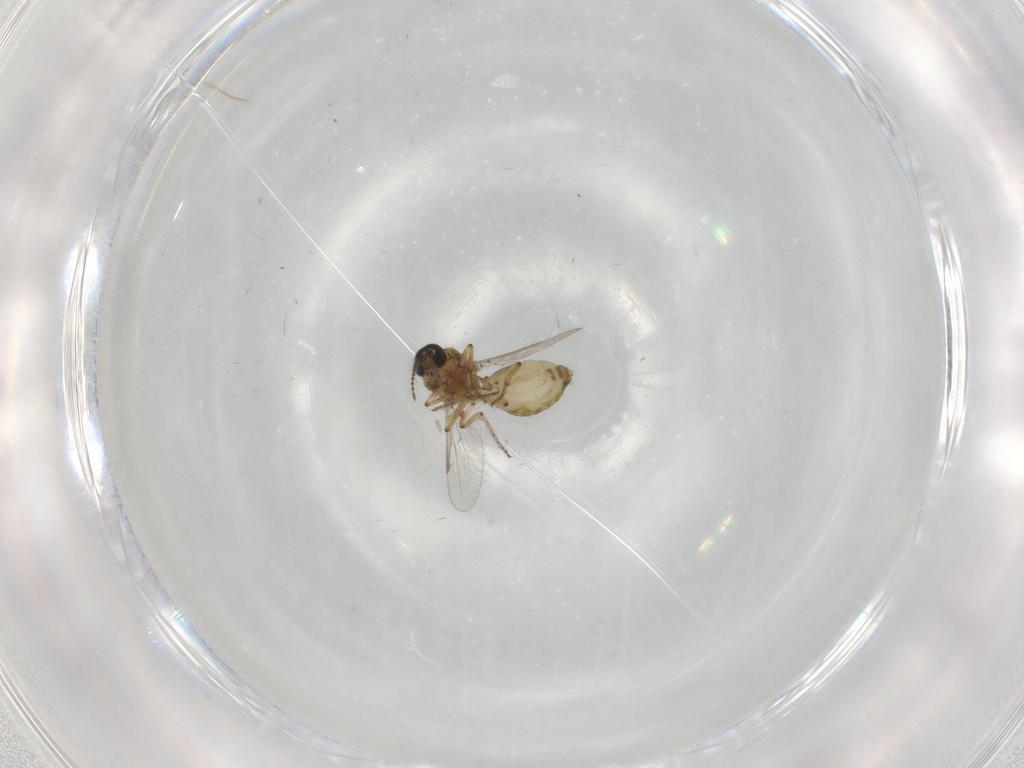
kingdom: Animalia
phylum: Arthropoda
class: Insecta
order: Diptera
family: Ceratopogonidae
